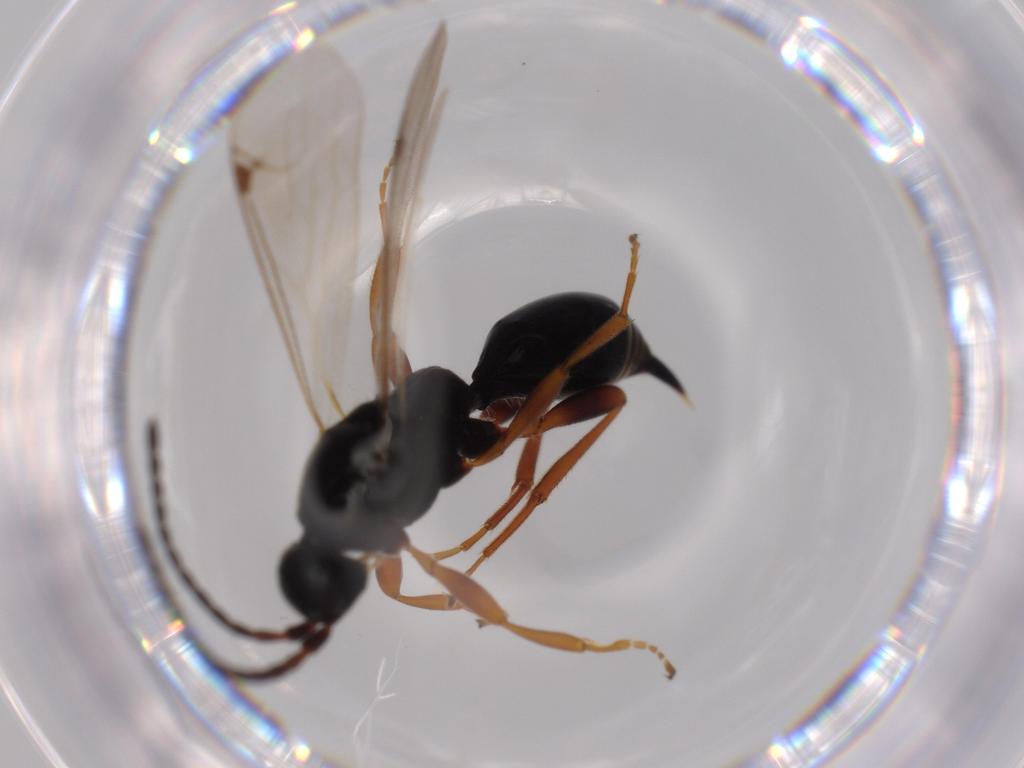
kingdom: Animalia
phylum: Arthropoda
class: Insecta
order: Hymenoptera
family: Proctotrupidae
